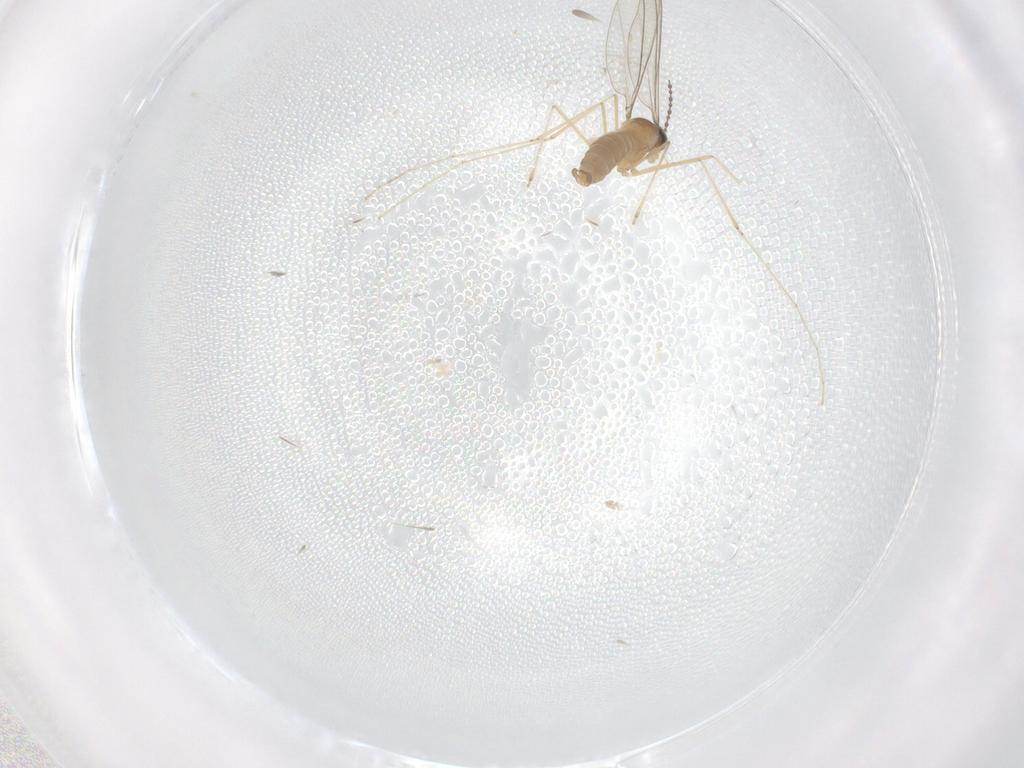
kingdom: Animalia
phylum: Arthropoda
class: Insecta
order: Diptera
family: Cecidomyiidae
